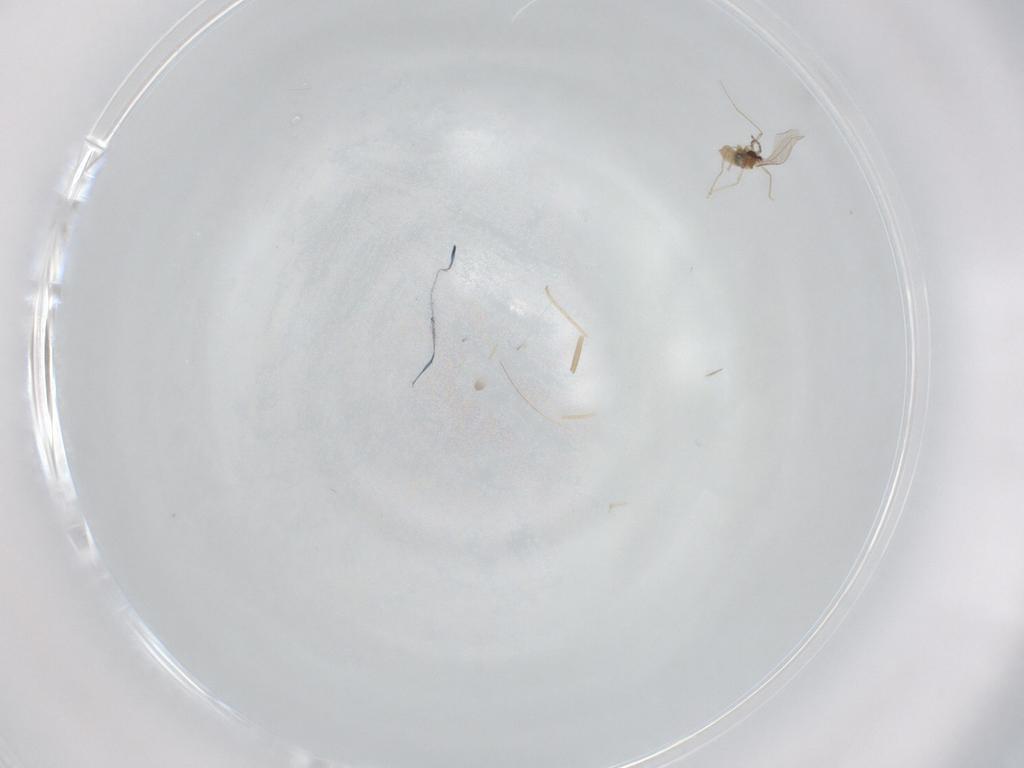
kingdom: Animalia
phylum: Arthropoda
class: Insecta
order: Diptera
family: Cecidomyiidae
